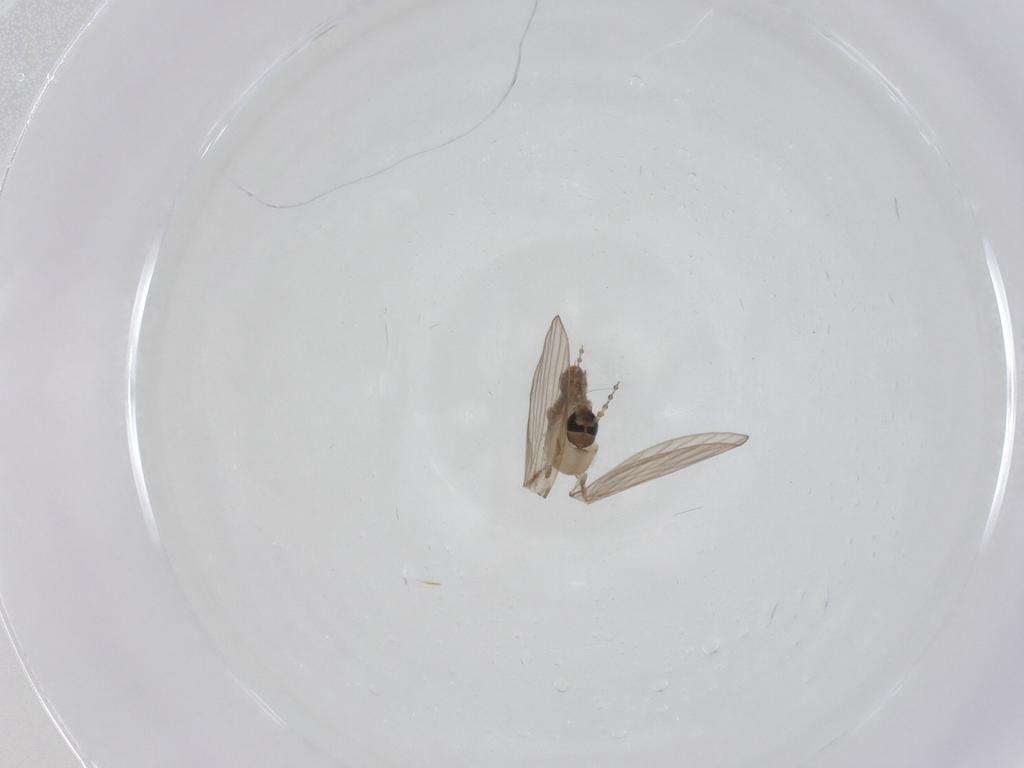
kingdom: Animalia
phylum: Arthropoda
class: Insecta
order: Diptera
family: Psychodidae
